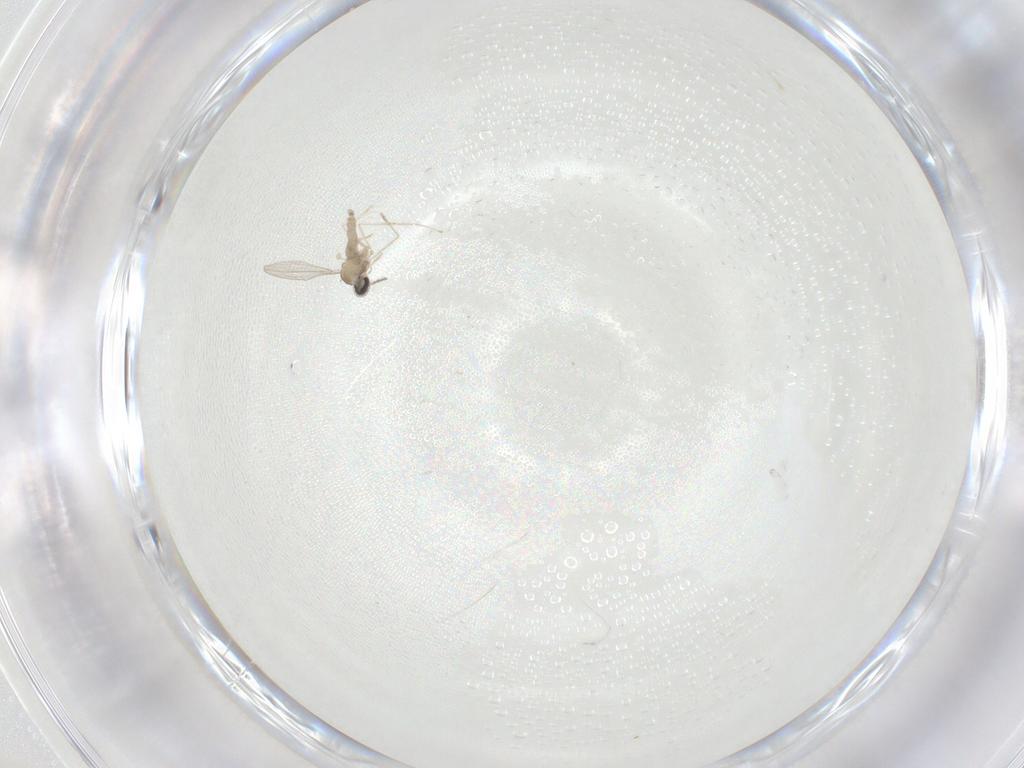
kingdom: Animalia
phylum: Arthropoda
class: Insecta
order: Diptera
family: Cecidomyiidae
